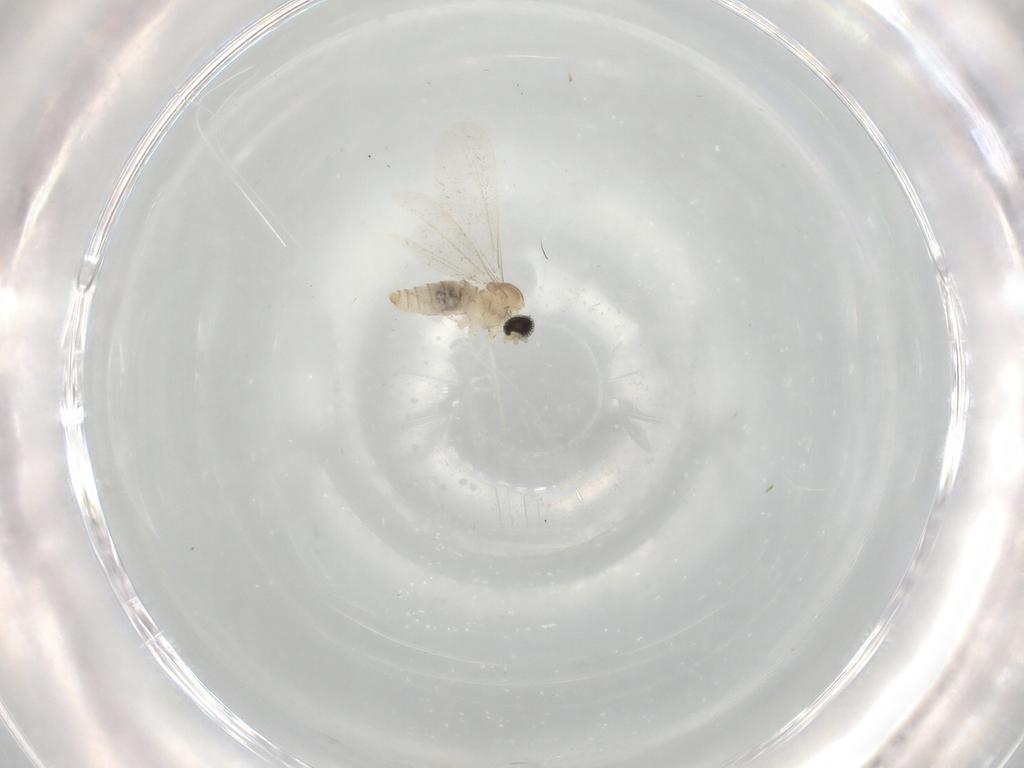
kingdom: Animalia
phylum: Arthropoda
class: Insecta
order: Diptera
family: Cecidomyiidae
